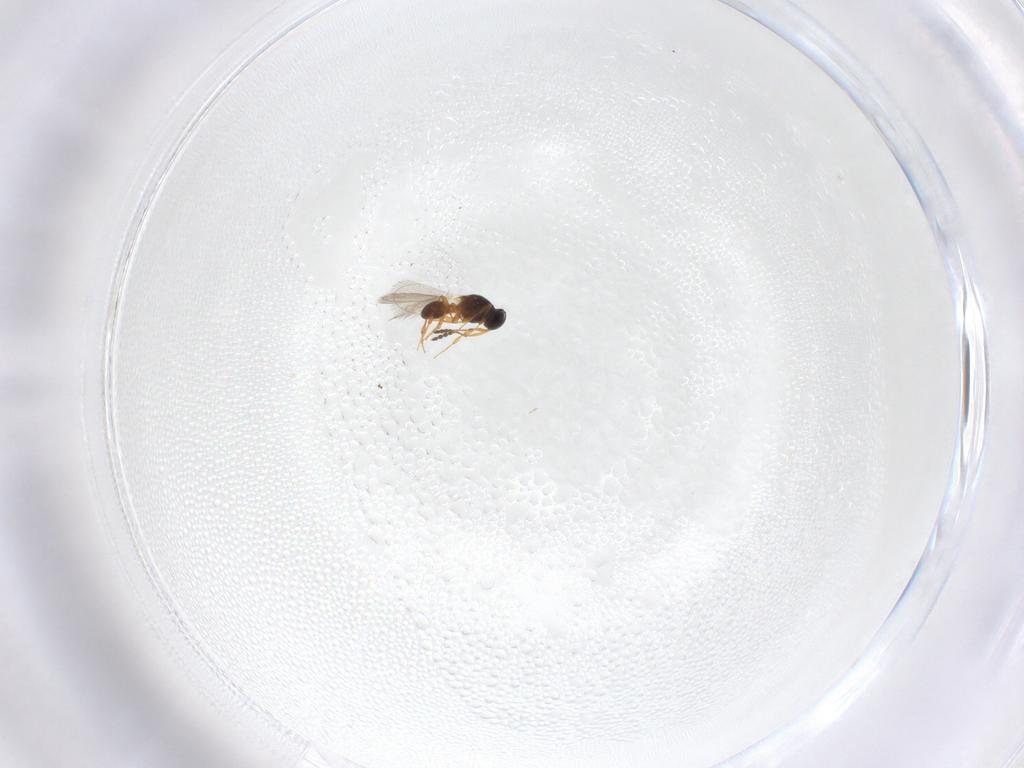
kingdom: Animalia
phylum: Arthropoda
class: Insecta
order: Hymenoptera
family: Platygastridae
